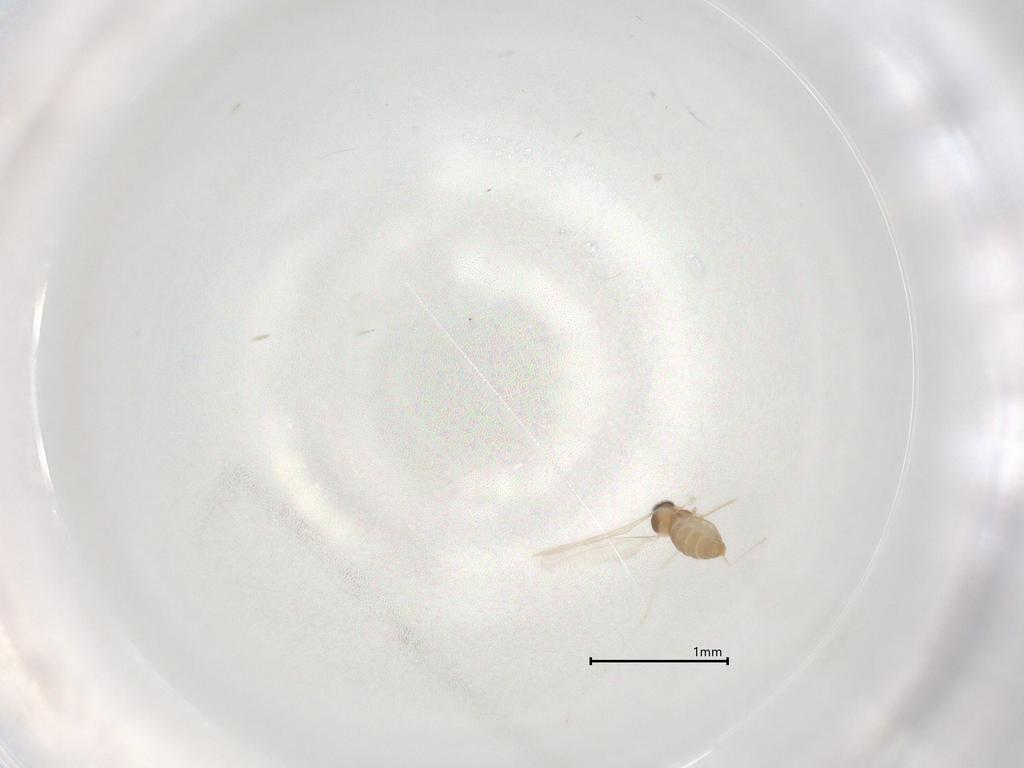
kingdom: Animalia
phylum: Arthropoda
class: Insecta
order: Diptera
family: Cecidomyiidae
